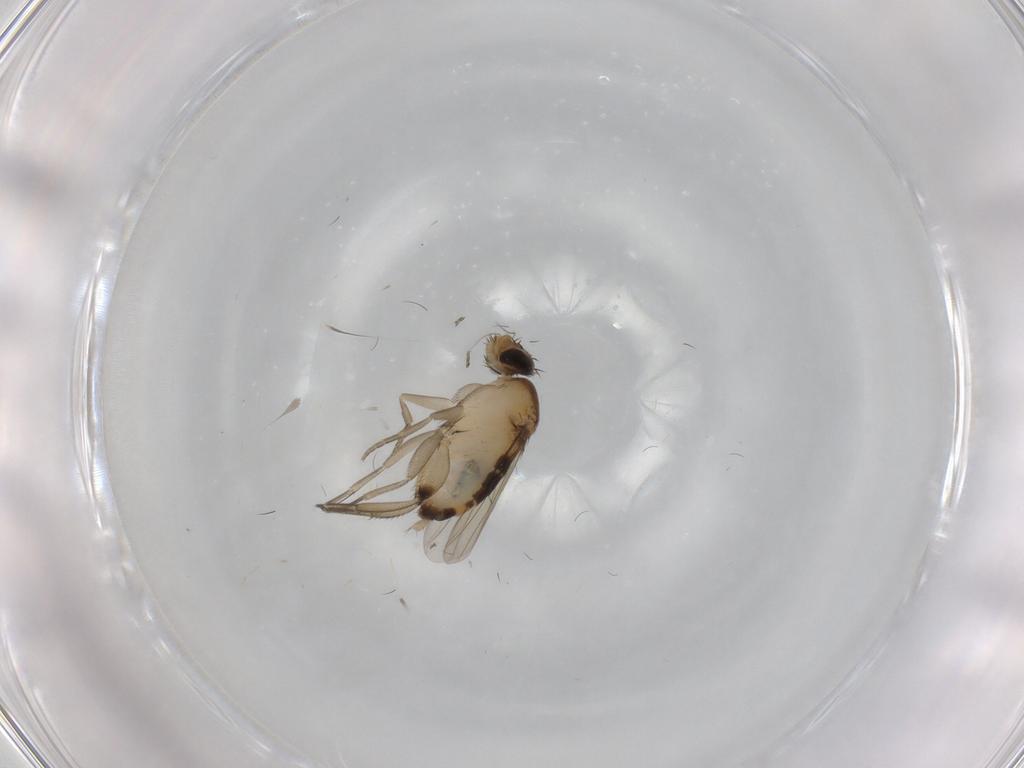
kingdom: Animalia
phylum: Arthropoda
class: Insecta
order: Diptera
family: Phoridae
